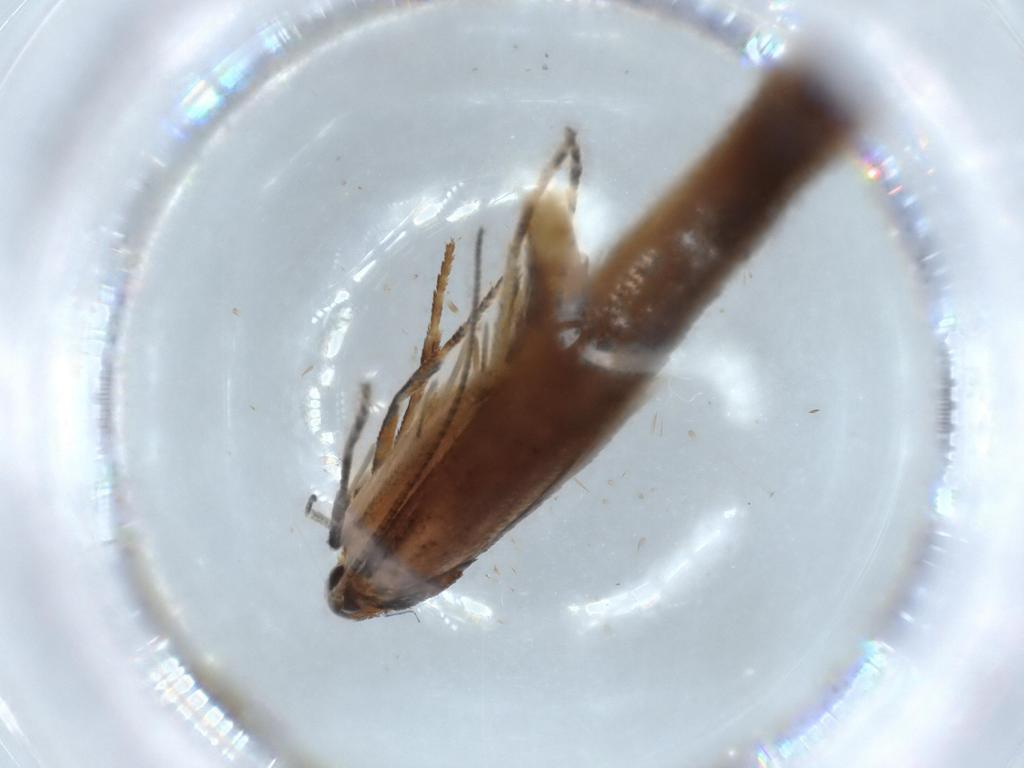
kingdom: Animalia
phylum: Arthropoda
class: Insecta
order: Lepidoptera
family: Stathmopodidae
